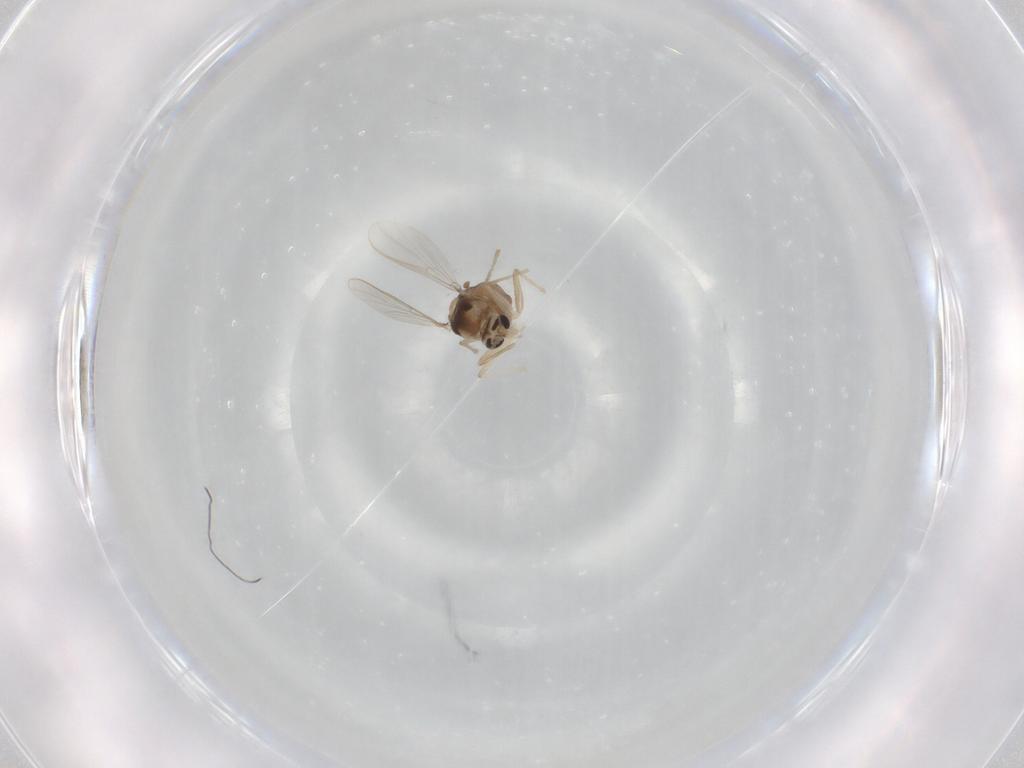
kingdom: Animalia
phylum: Arthropoda
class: Insecta
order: Diptera
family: Chironomidae
